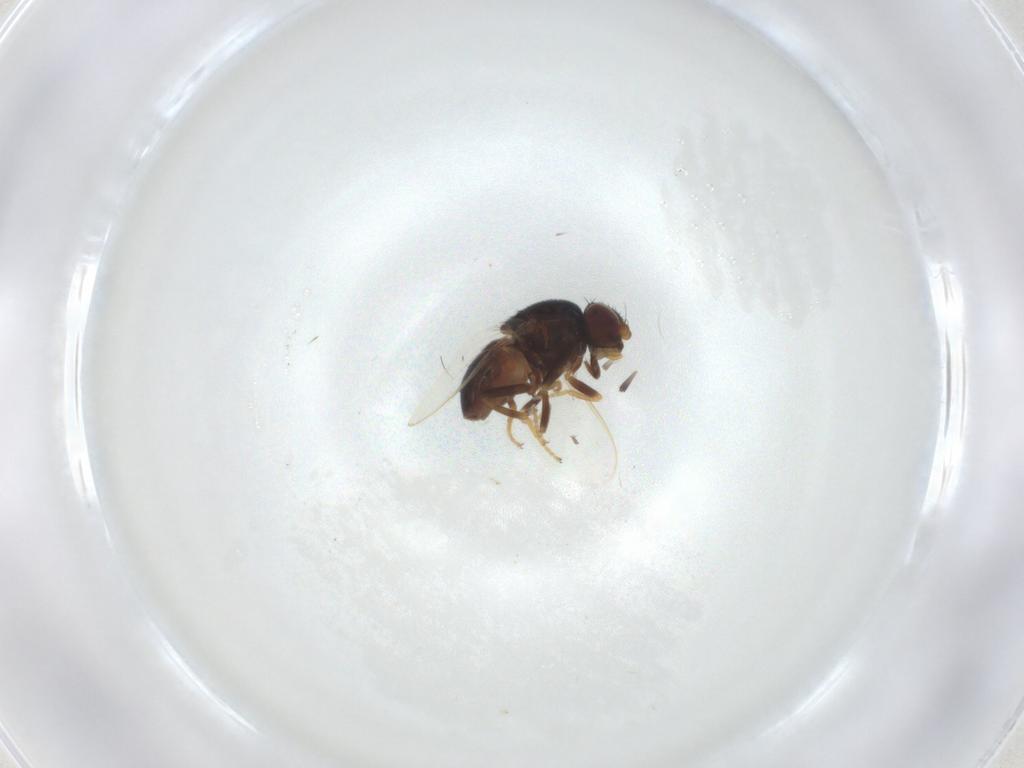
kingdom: Animalia
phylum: Arthropoda
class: Insecta
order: Diptera
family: Chloropidae
